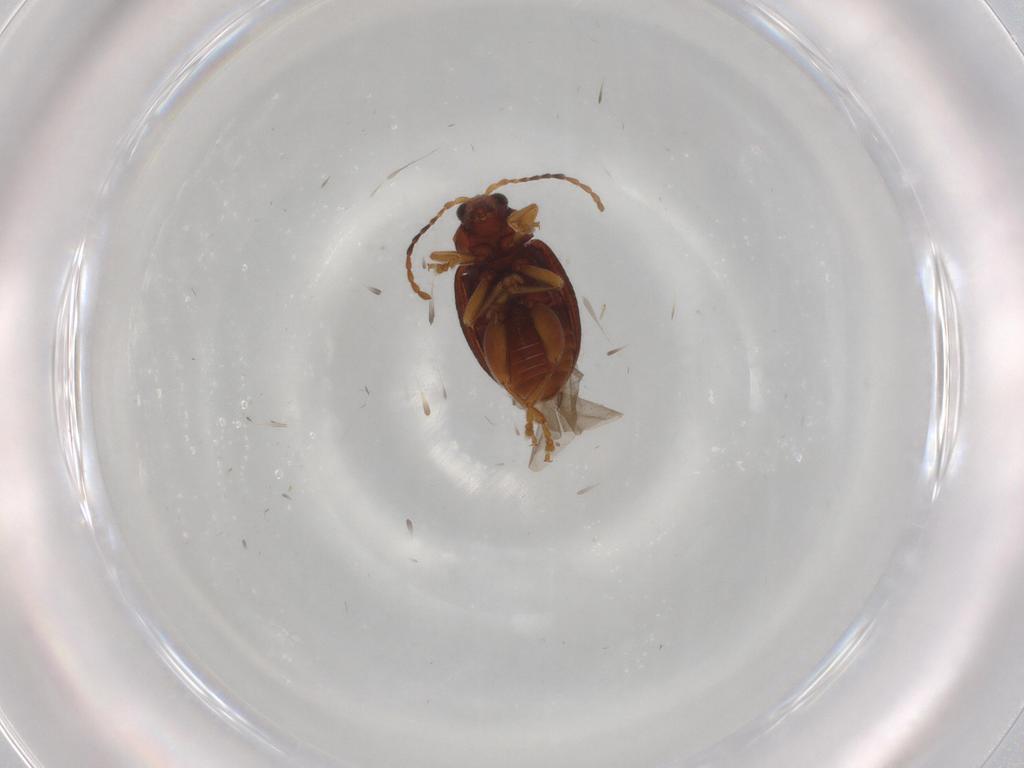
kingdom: Animalia
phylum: Arthropoda
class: Insecta
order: Coleoptera
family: Chrysomelidae
